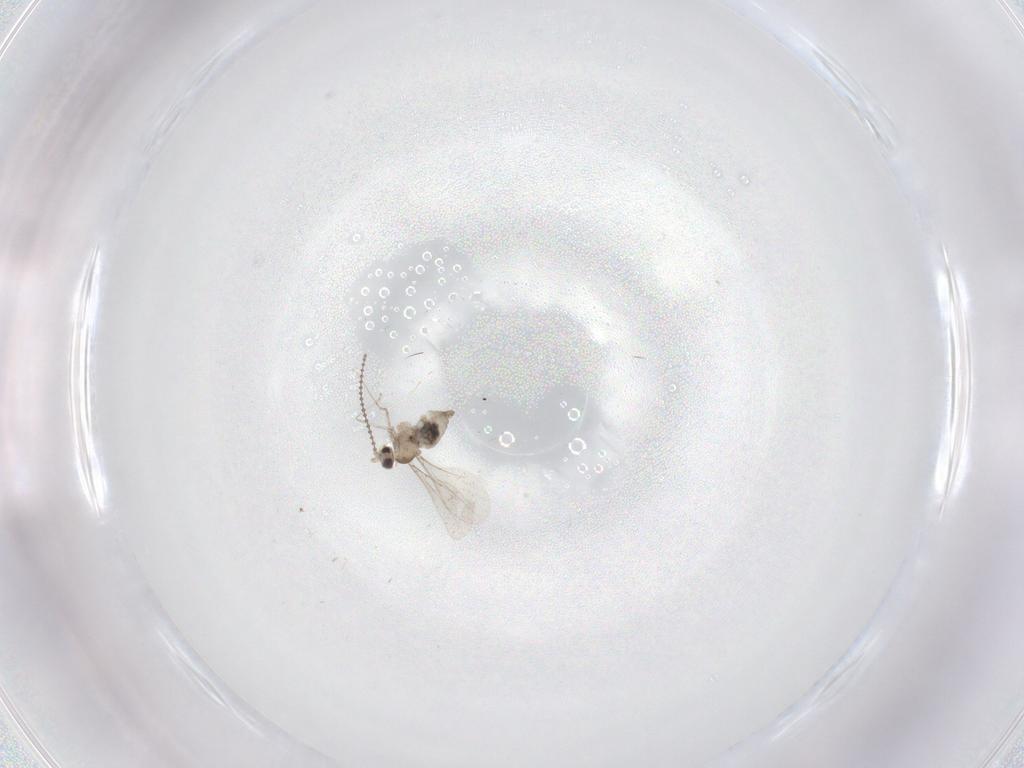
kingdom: Animalia
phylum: Arthropoda
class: Insecta
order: Diptera
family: Cecidomyiidae
